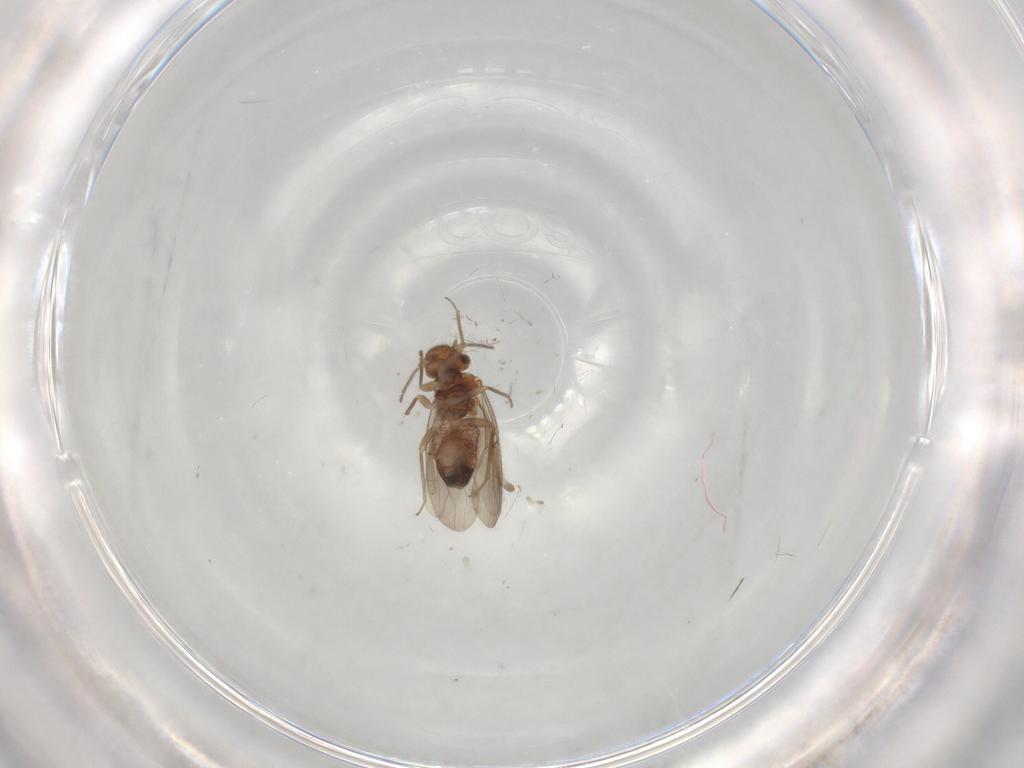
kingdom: Animalia
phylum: Arthropoda
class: Insecta
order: Psocodea
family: Ectopsocidae
